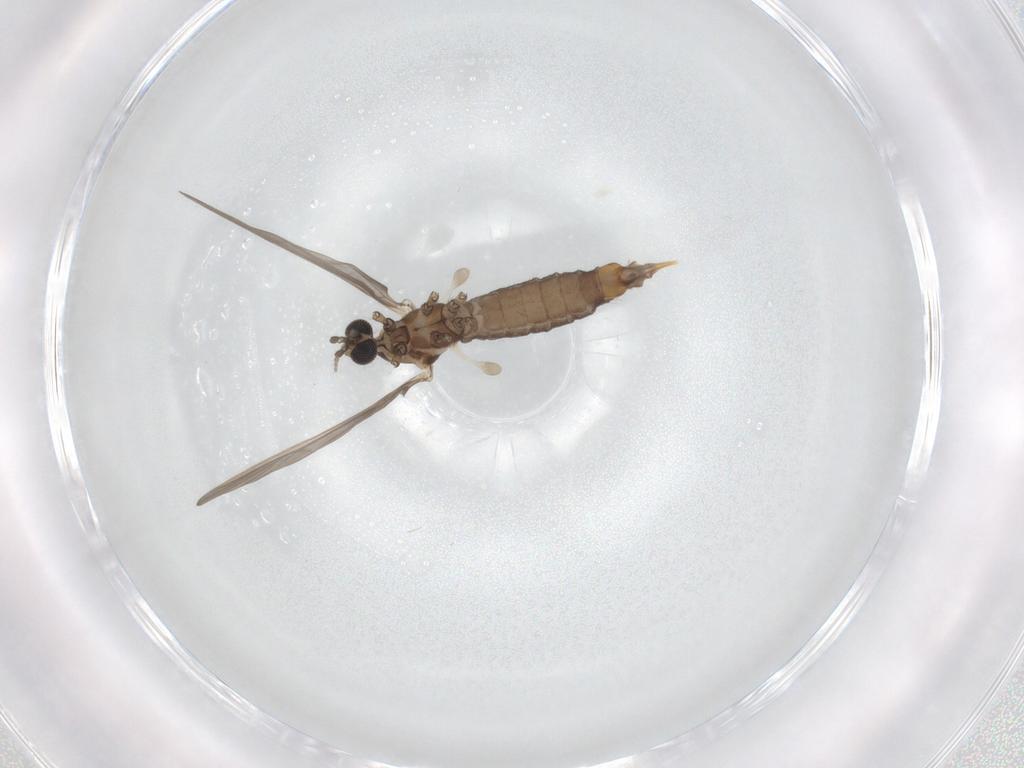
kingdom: Animalia
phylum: Arthropoda
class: Insecta
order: Diptera
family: Limoniidae
